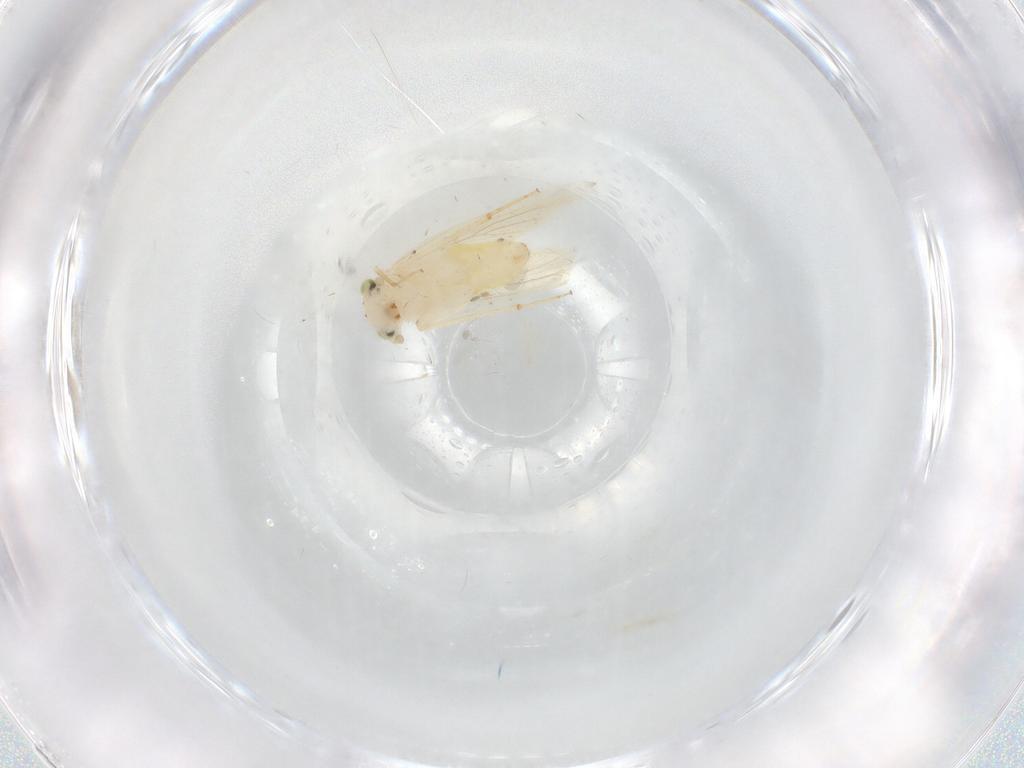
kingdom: Animalia
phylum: Arthropoda
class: Insecta
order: Psocodea
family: Lepidopsocidae
